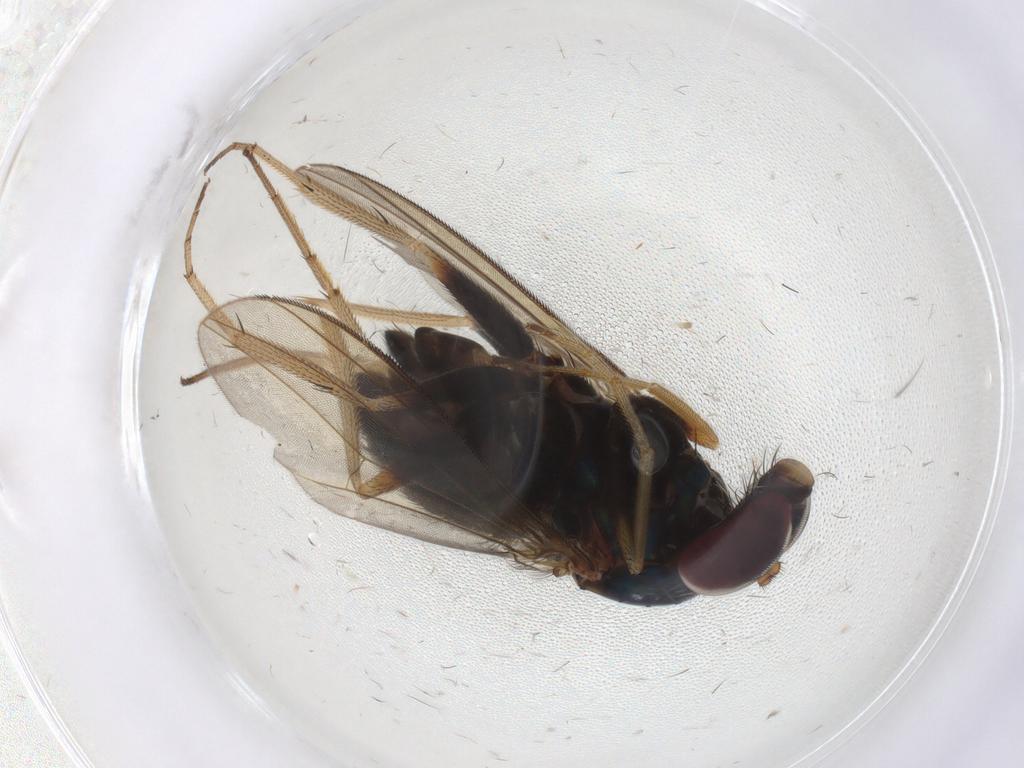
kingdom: Animalia
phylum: Arthropoda
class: Insecta
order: Diptera
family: Dolichopodidae
